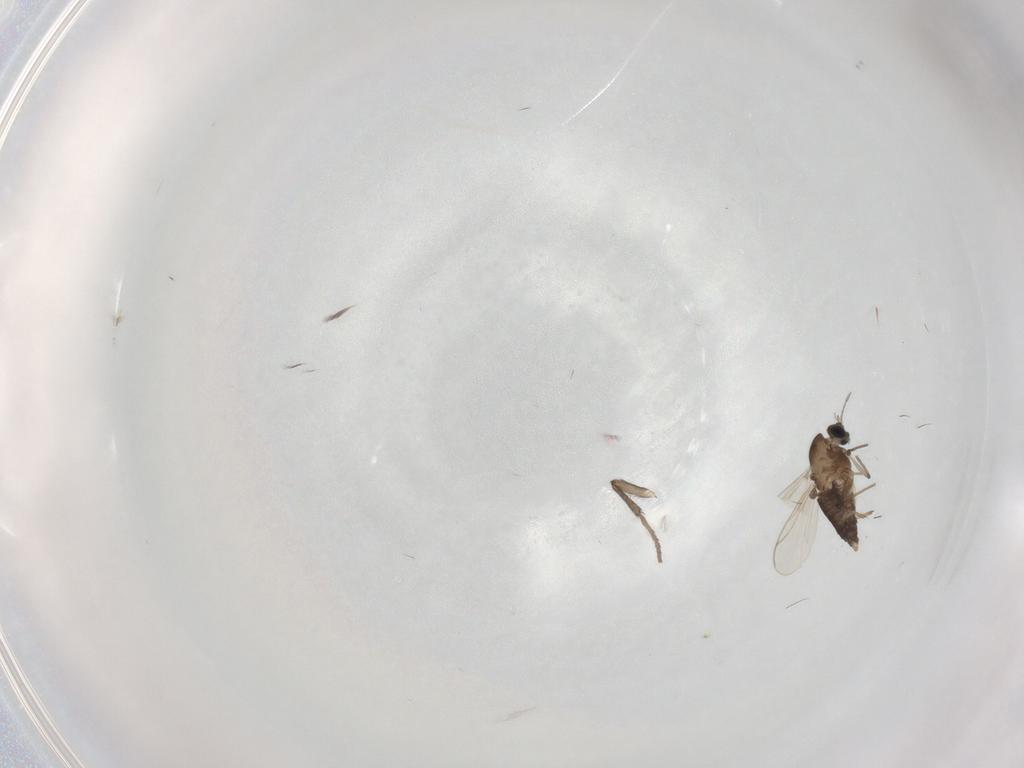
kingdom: Animalia
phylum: Arthropoda
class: Insecta
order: Diptera
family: Chironomidae
